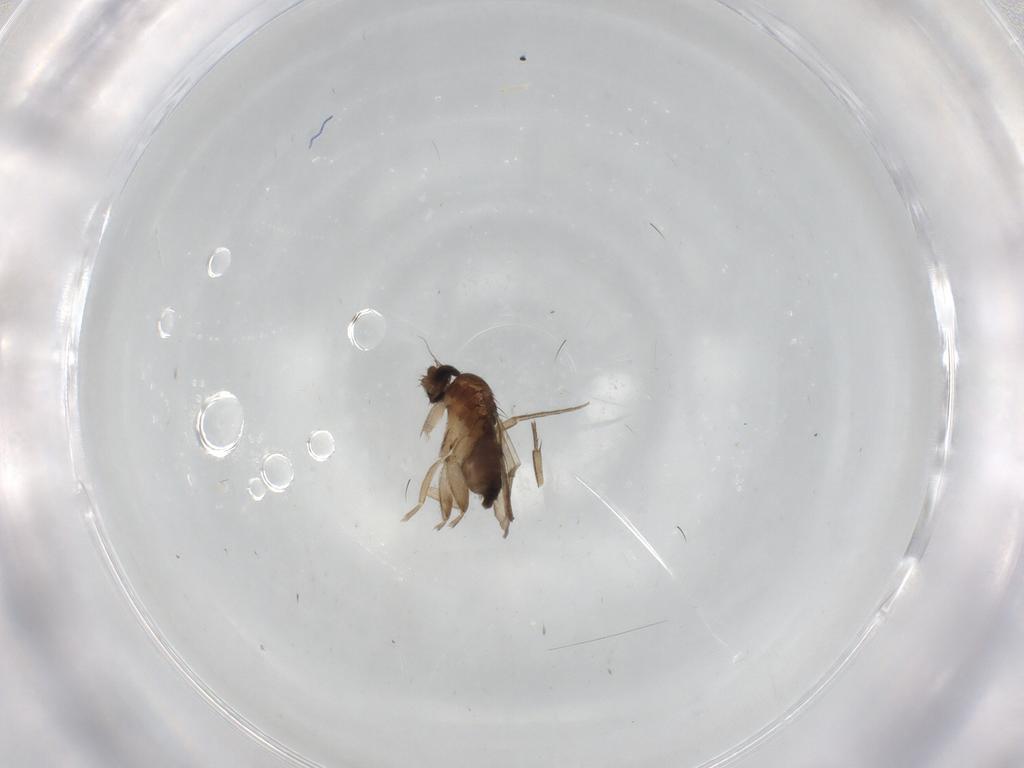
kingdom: Animalia
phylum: Arthropoda
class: Insecta
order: Diptera
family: Phoridae
